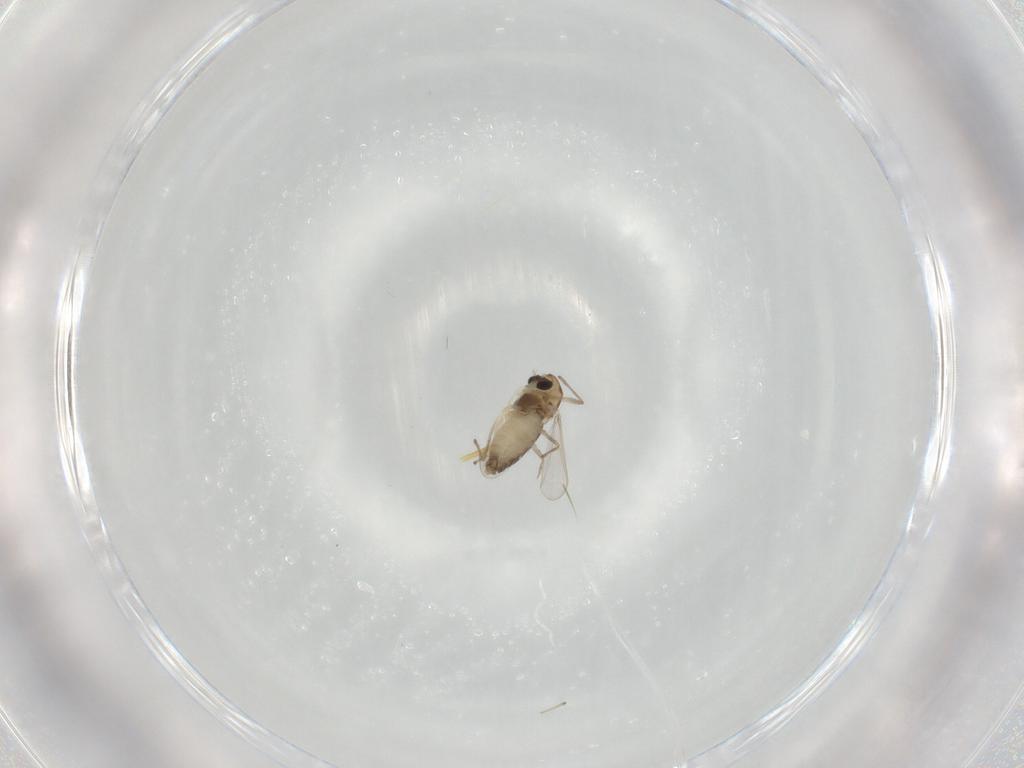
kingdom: Animalia
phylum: Arthropoda
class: Insecta
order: Diptera
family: Chironomidae
